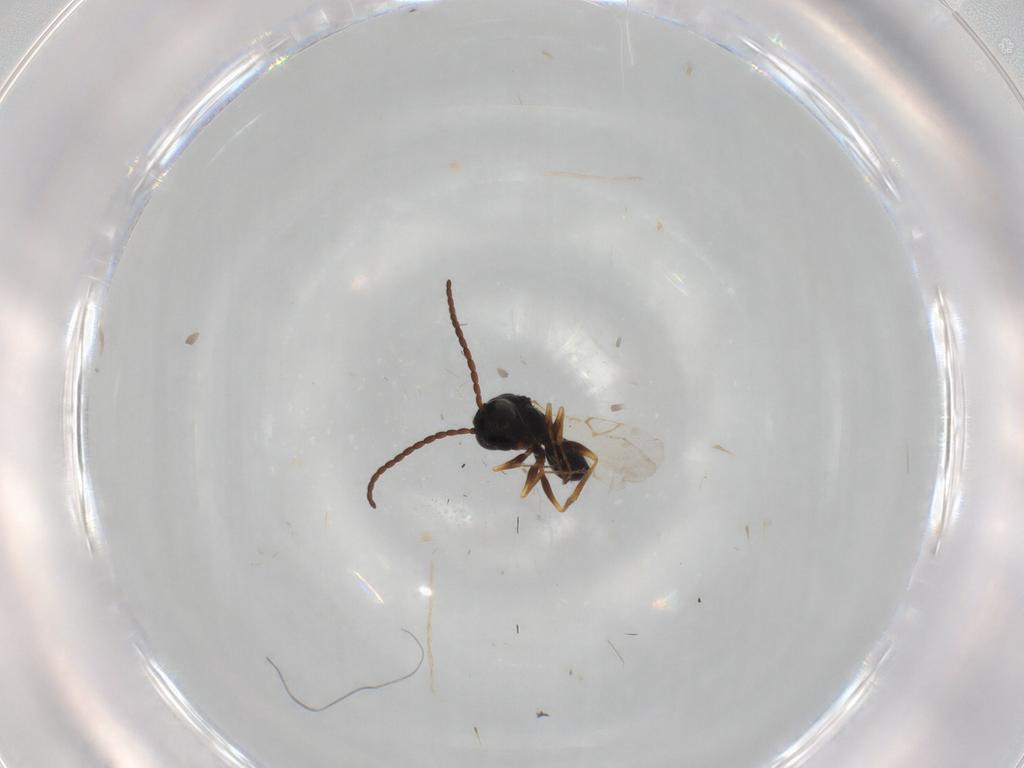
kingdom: Animalia
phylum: Arthropoda
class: Insecta
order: Hymenoptera
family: Figitidae
